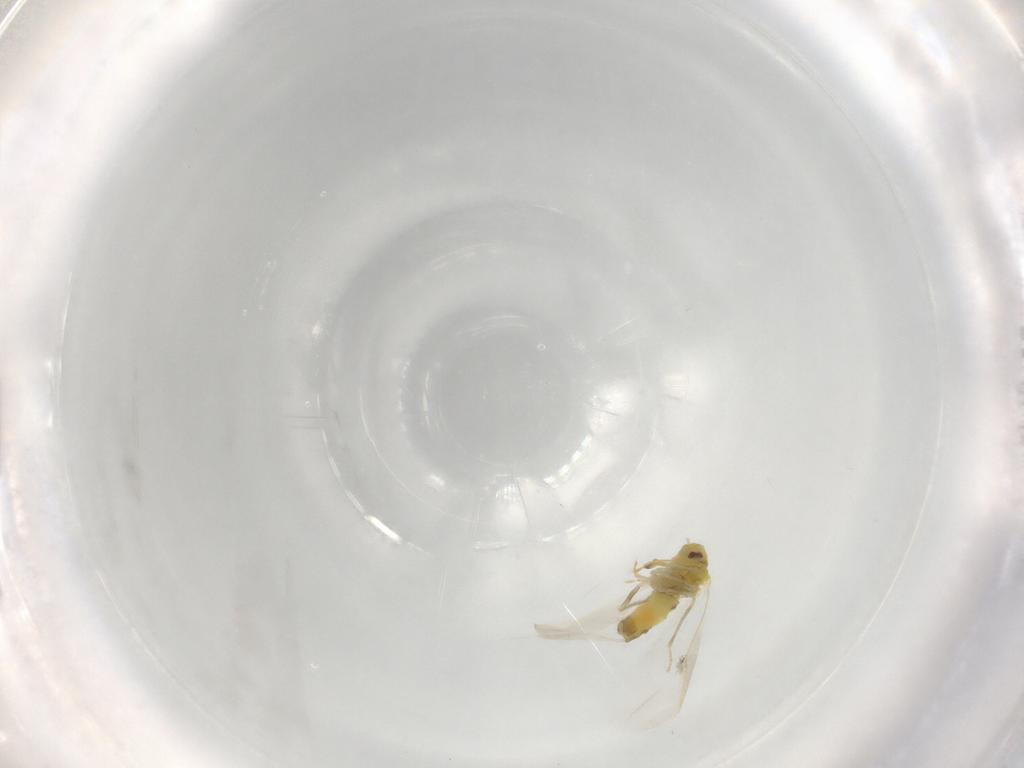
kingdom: Animalia
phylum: Arthropoda
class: Insecta
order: Hemiptera
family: Aleyrodidae
